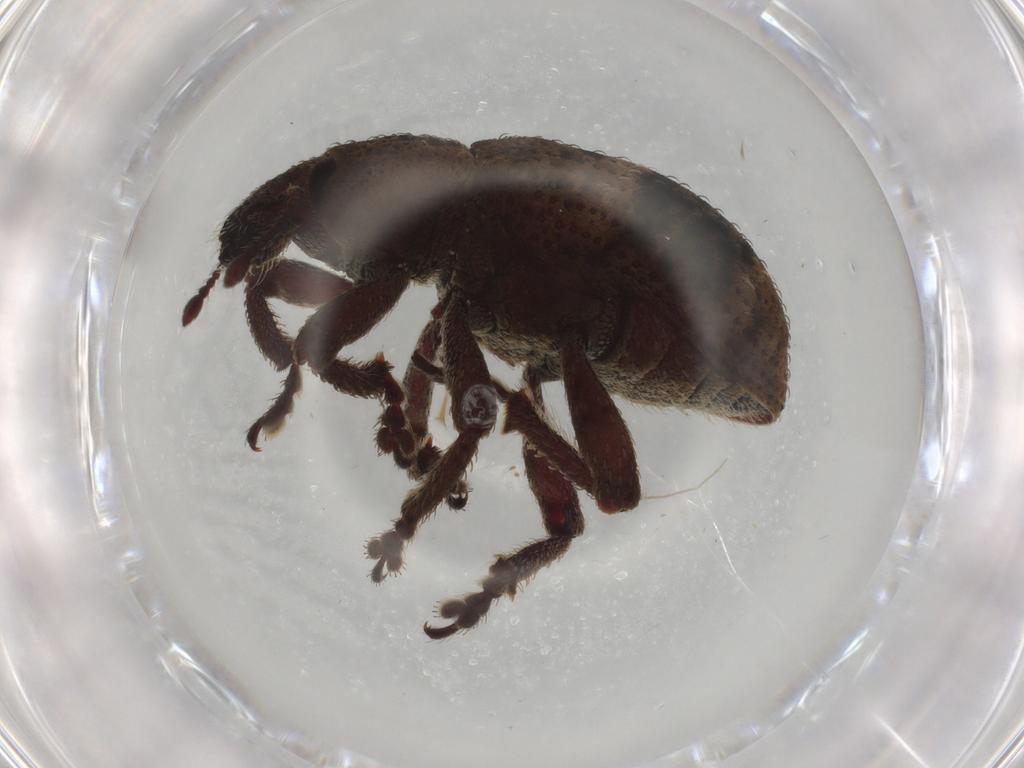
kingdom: Animalia
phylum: Arthropoda
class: Insecta
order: Coleoptera
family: Curculionidae
